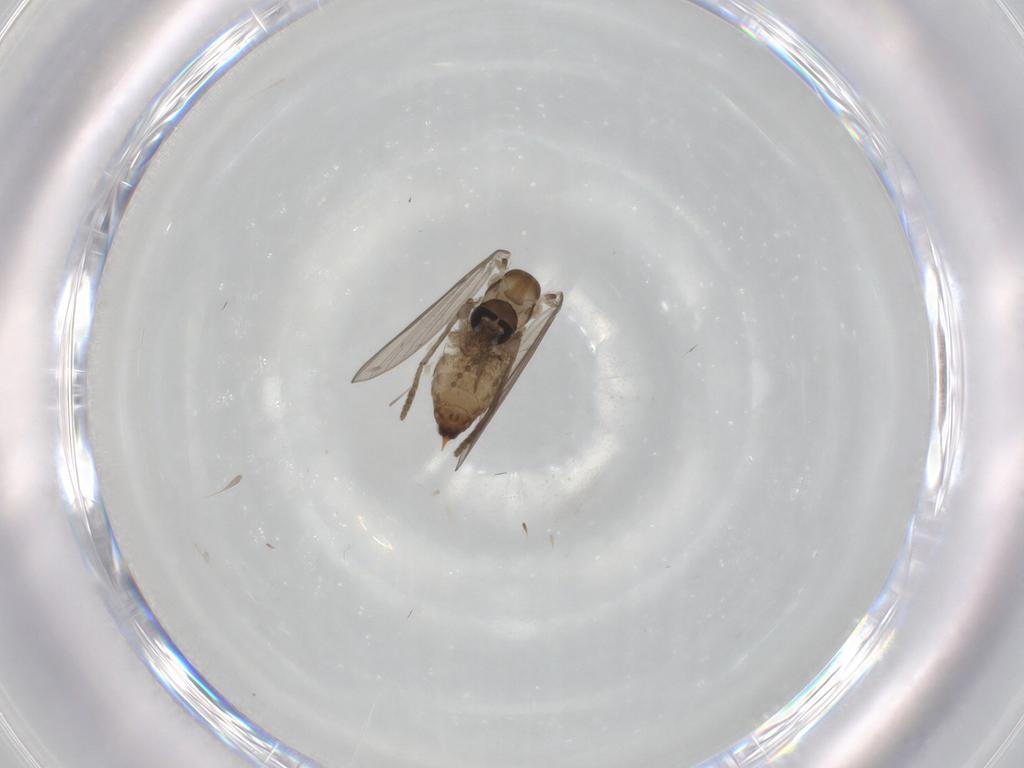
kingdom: Animalia
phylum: Arthropoda
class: Insecta
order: Diptera
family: Psychodidae
